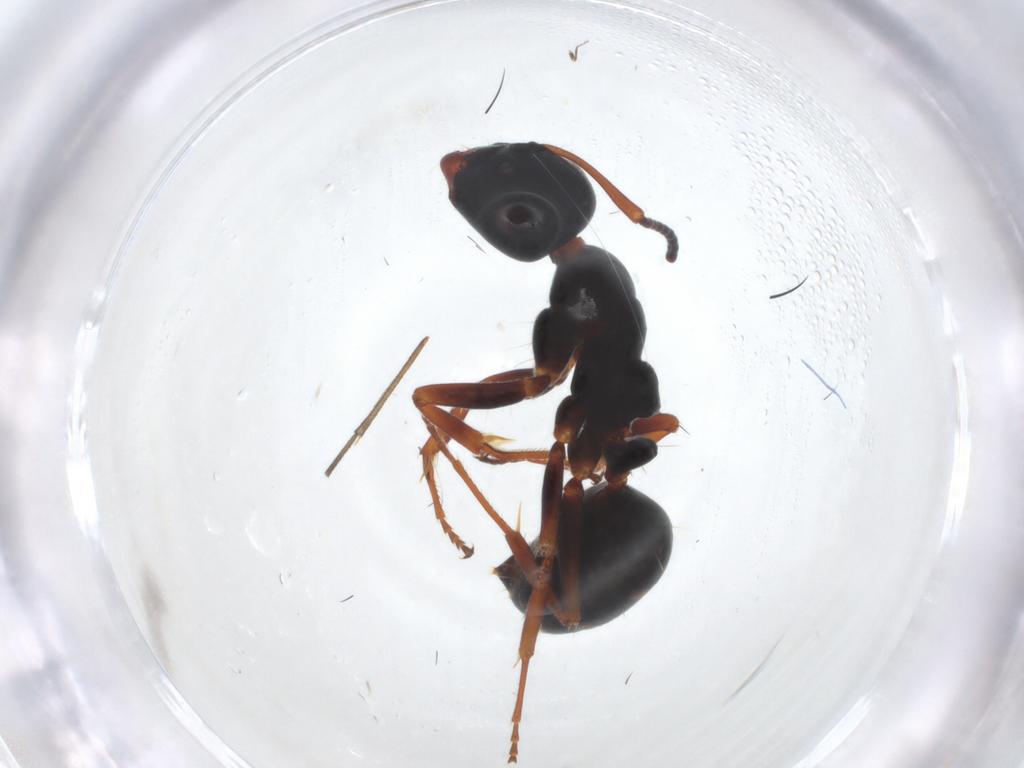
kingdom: Animalia
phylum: Arthropoda
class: Insecta
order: Hymenoptera
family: Formicidae
